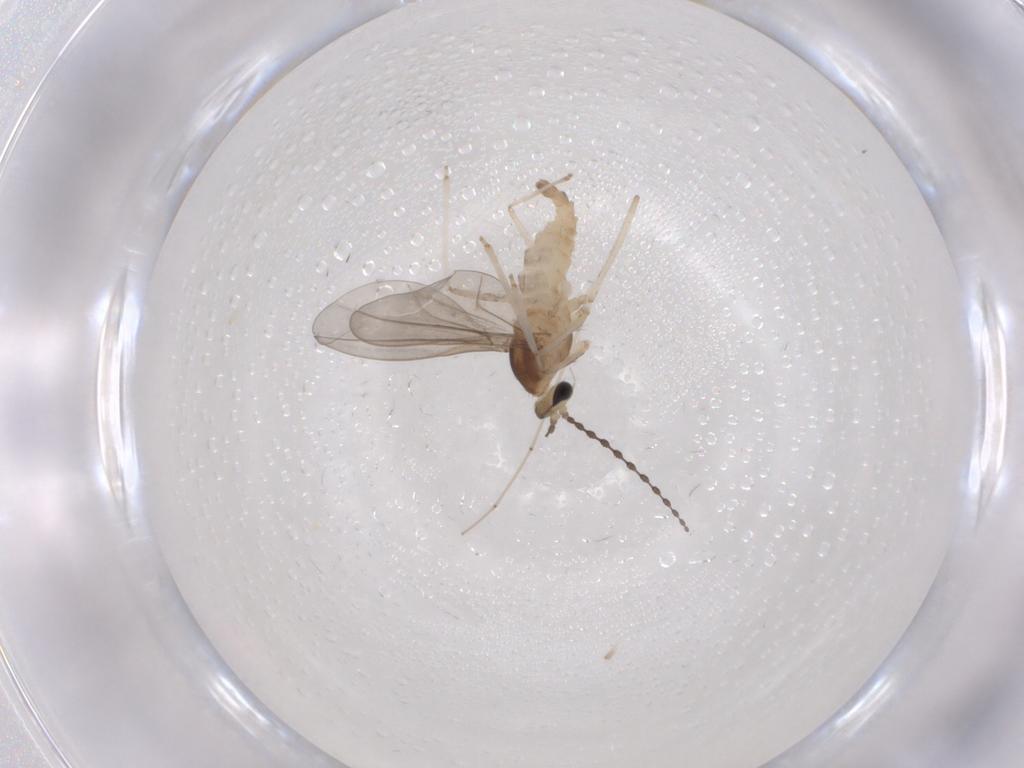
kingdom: Animalia
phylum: Arthropoda
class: Insecta
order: Diptera
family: Cecidomyiidae
